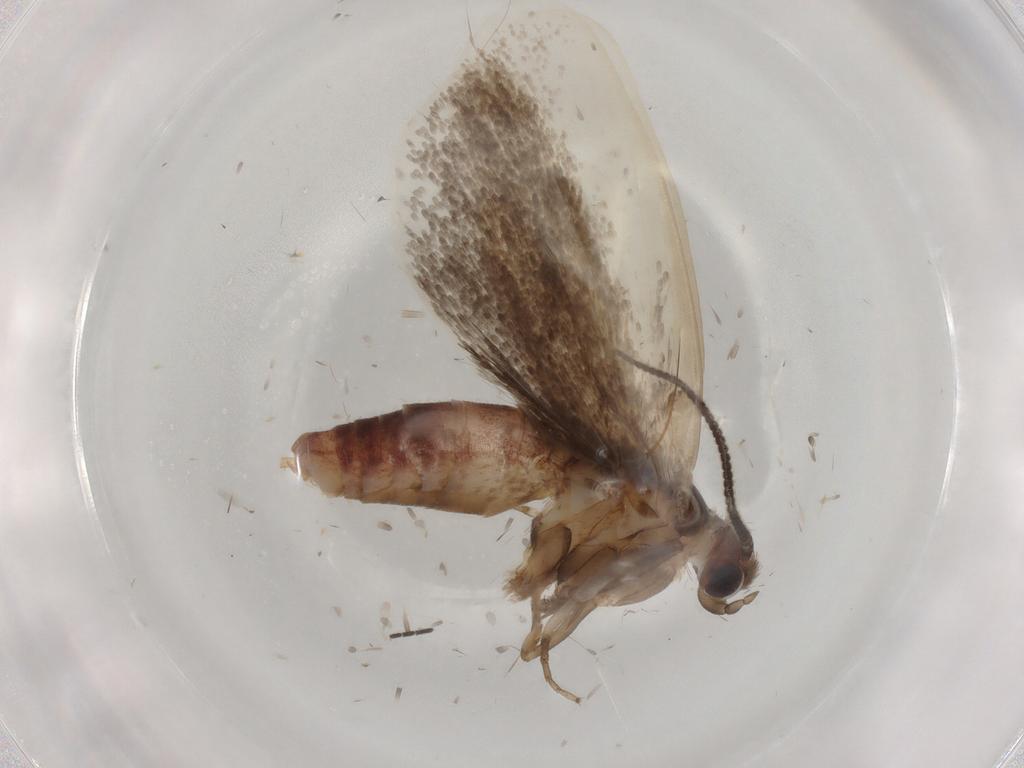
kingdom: Animalia
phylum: Arthropoda
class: Insecta
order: Lepidoptera
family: Tineidae
